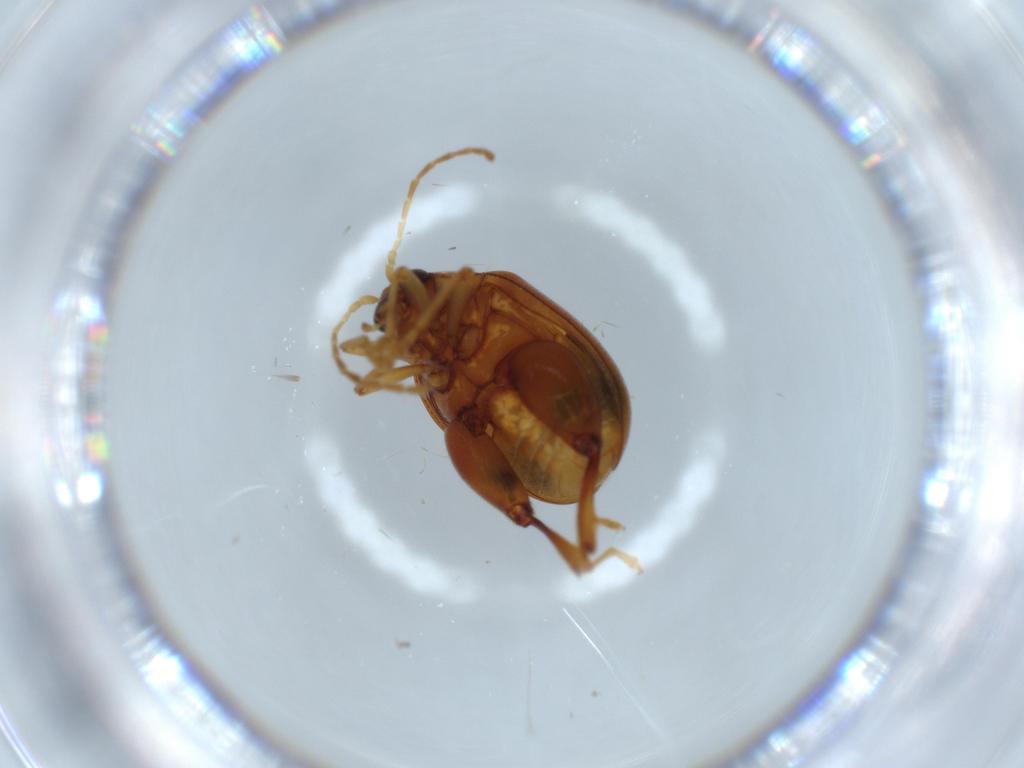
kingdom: Animalia
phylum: Arthropoda
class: Insecta
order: Coleoptera
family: Chrysomelidae
